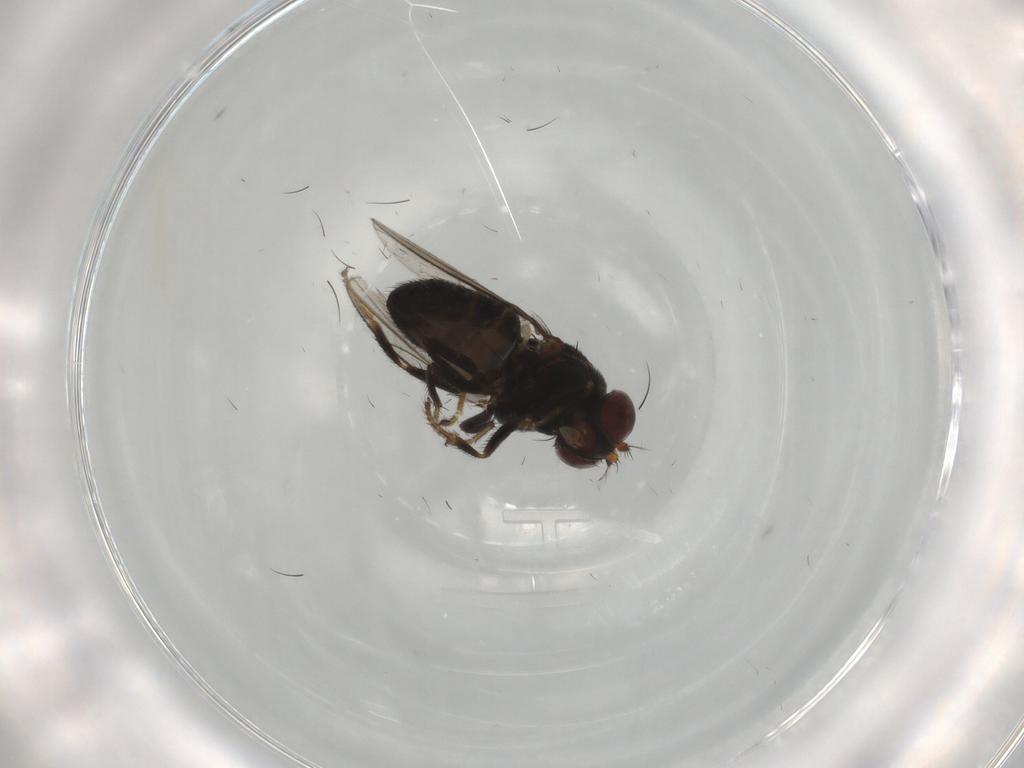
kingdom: Animalia
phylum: Arthropoda
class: Insecta
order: Diptera
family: Ephydridae
